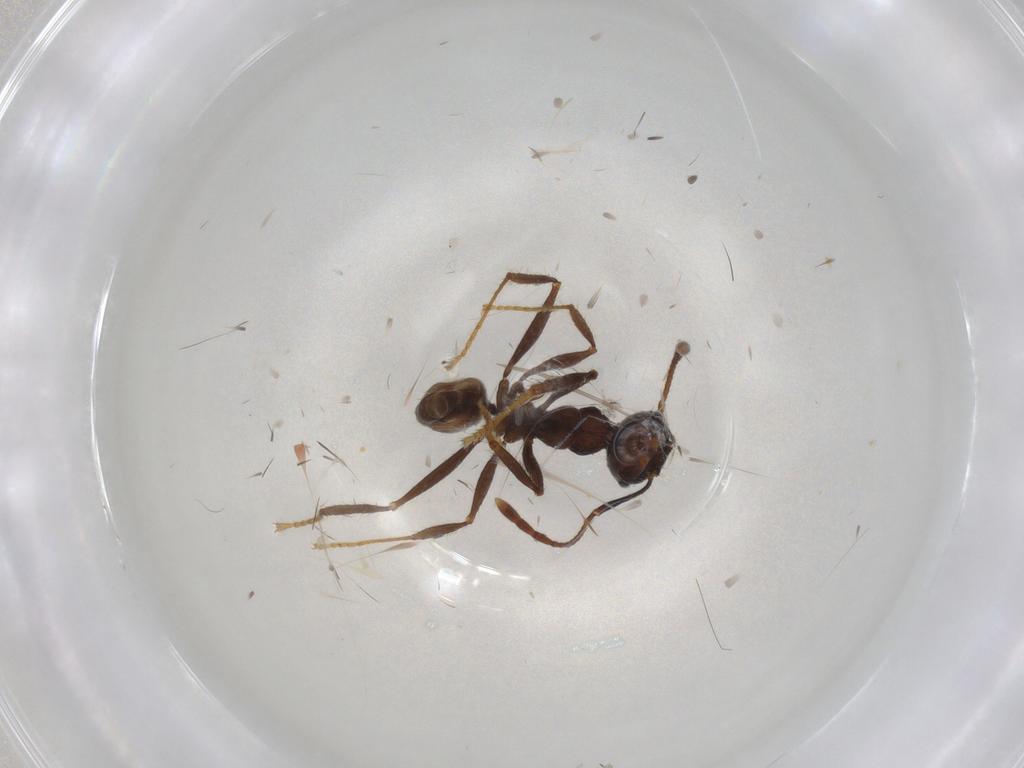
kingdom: Animalia
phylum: Arthropoda
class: Insecta
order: Hymenoptera
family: Formicidae
